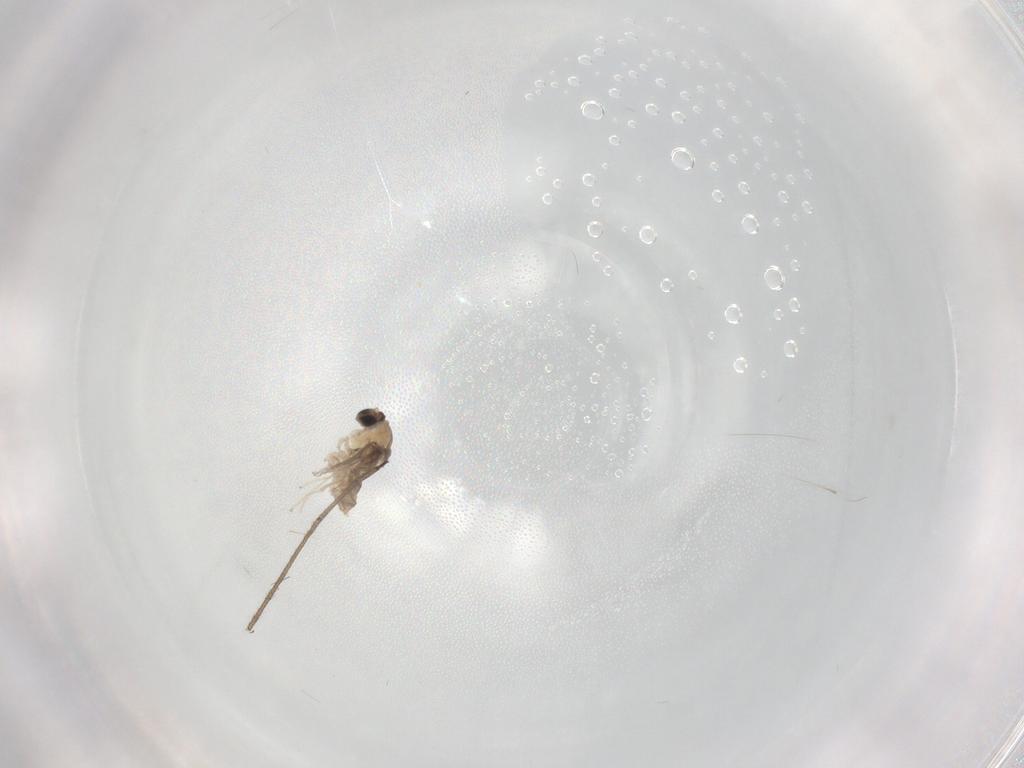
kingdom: Animalia
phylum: Arthropoda
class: Insecta
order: Diptera
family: Cecidomyiidae
